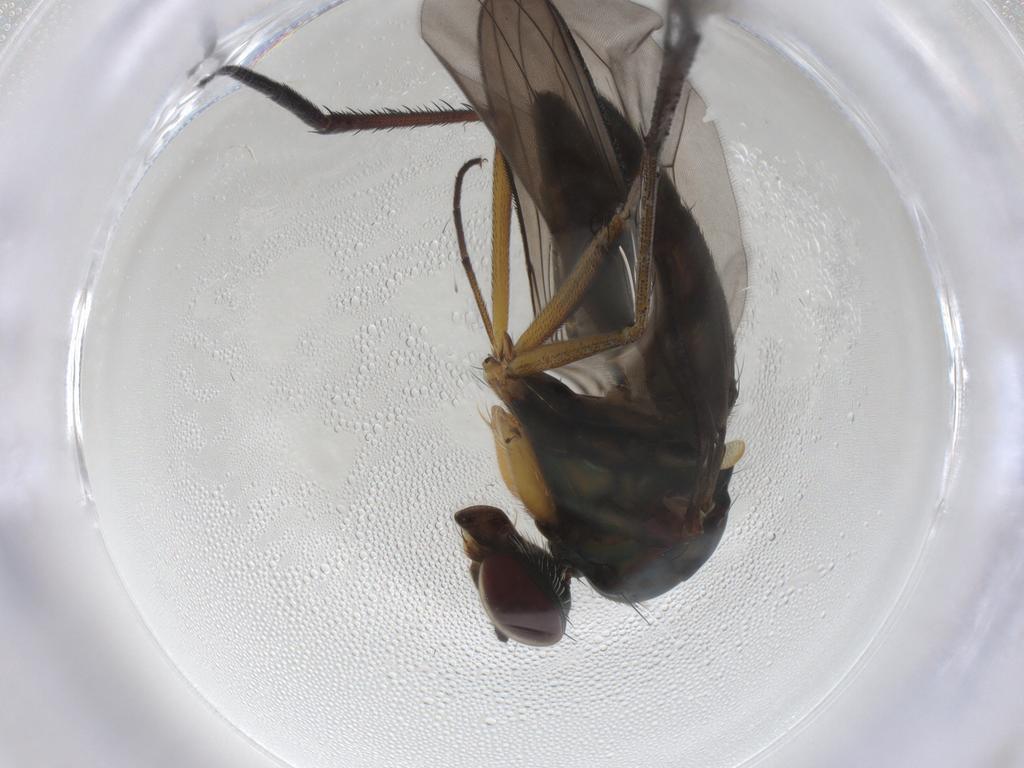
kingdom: Animalia
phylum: Arthropoda
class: Insecta
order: Diptera
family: Dolichopodidae
